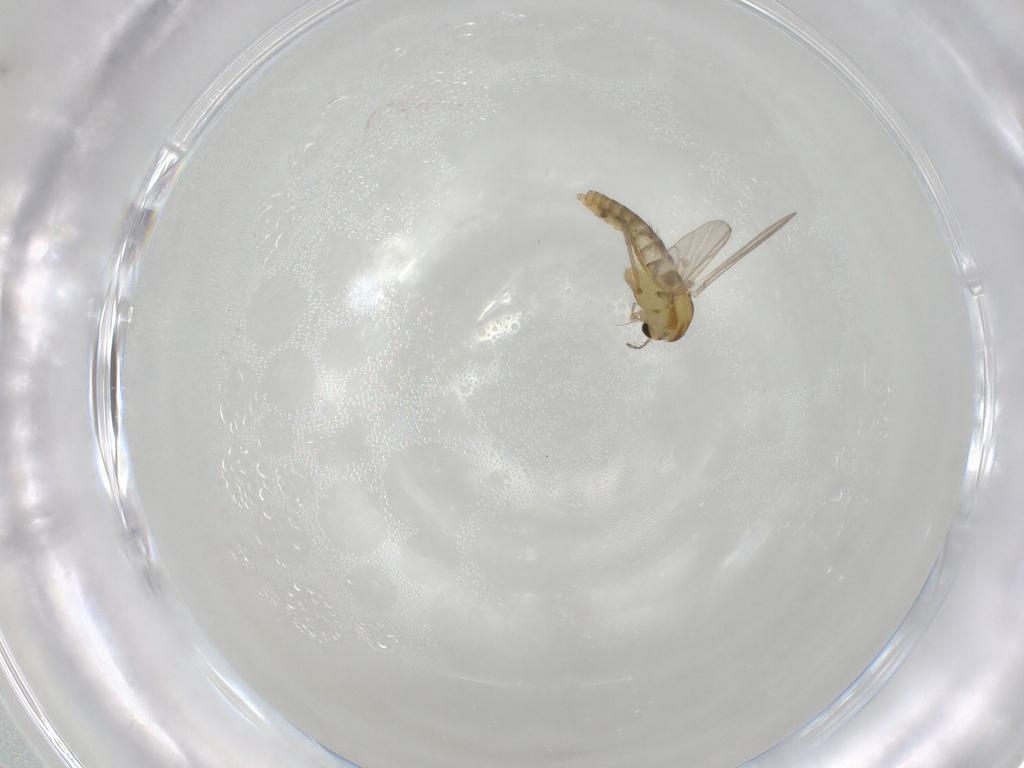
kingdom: Animalia
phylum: Arthropoda
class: Insecta
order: Diptera
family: Chironomidae
